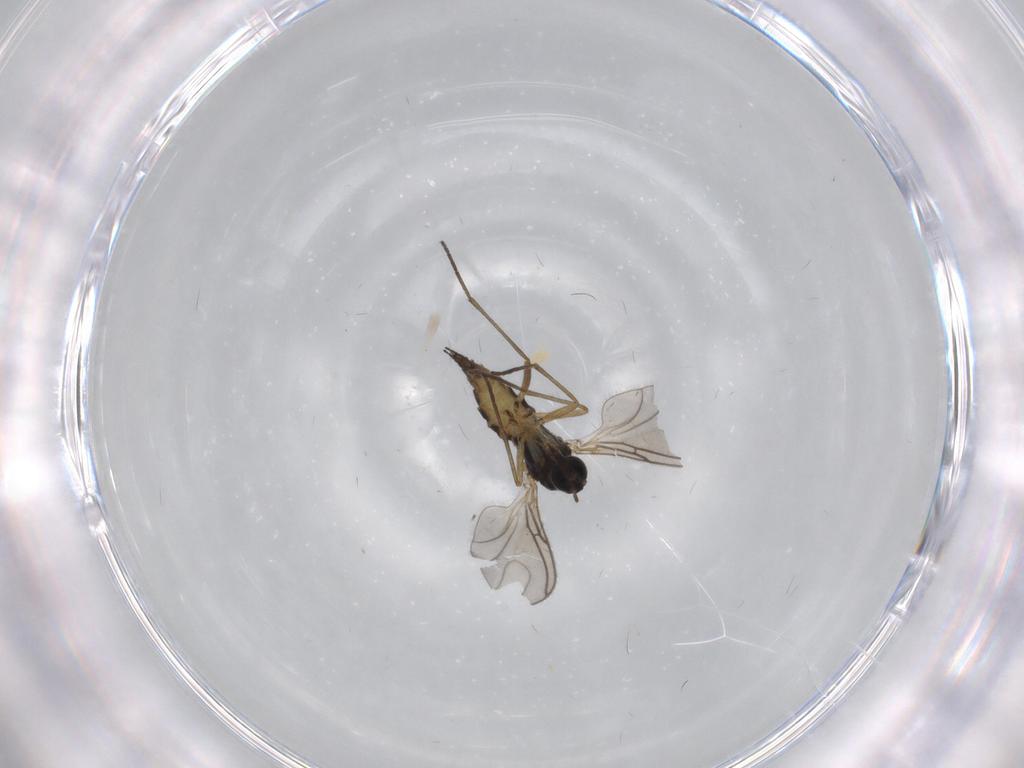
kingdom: Animalia
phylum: Arthropoda
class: Insecta
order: Diptera
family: Sciaridae
